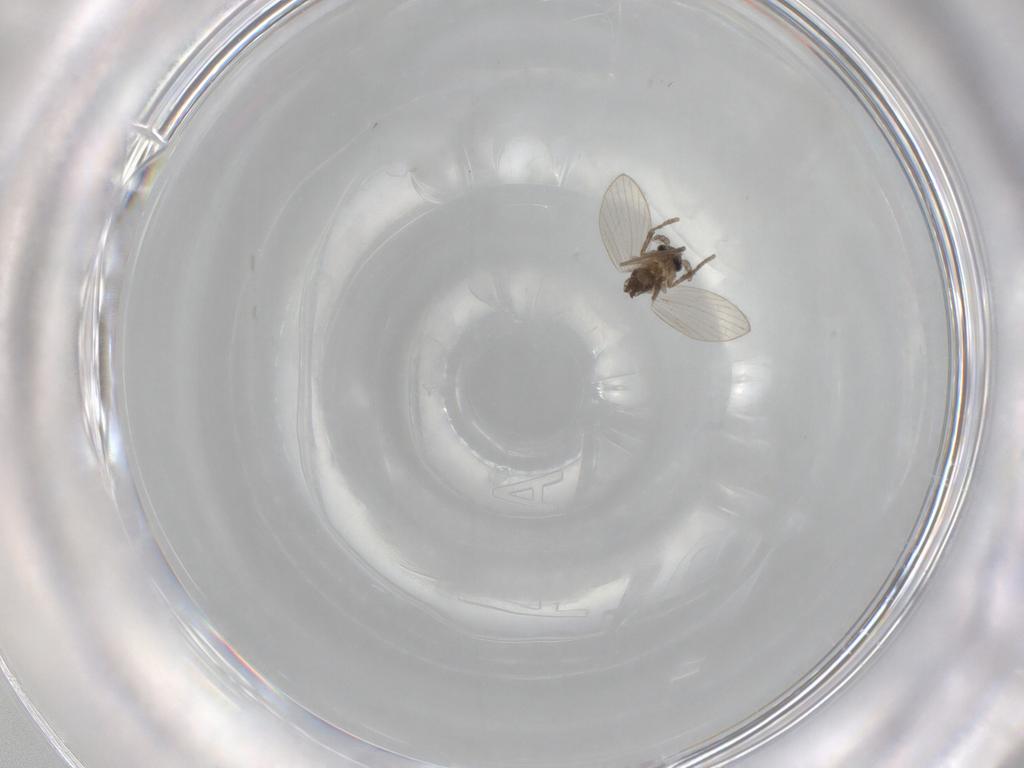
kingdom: Animalia
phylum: Arthropoda
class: Insecta
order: Diptera
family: Psychodidae
